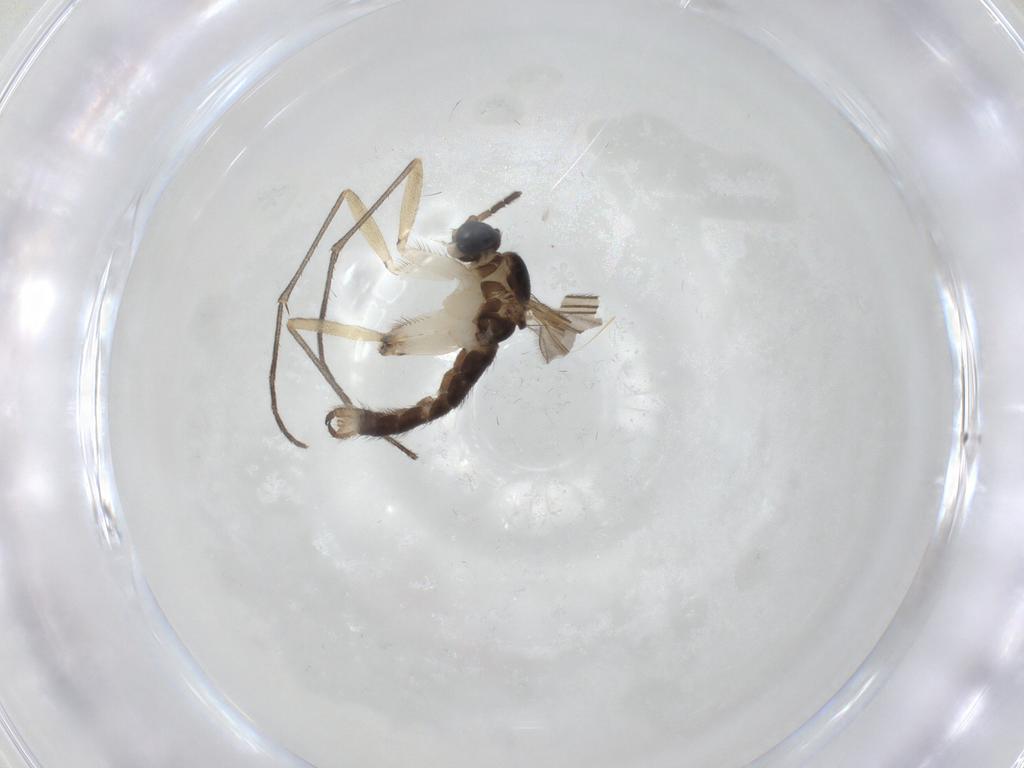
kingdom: Animalia
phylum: Arthropoda
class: Insecta
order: Diptera
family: Sciaridae
